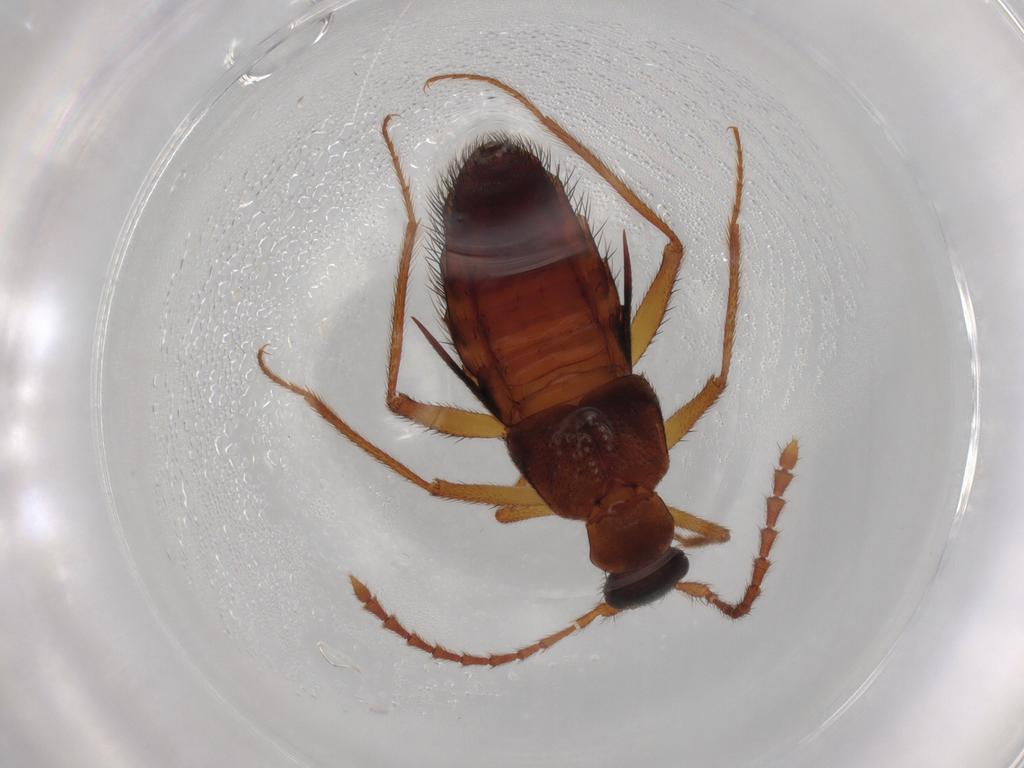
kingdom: Animalia
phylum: Arthropoda
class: Insecta
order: Coleoptera
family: Staphylinidae
